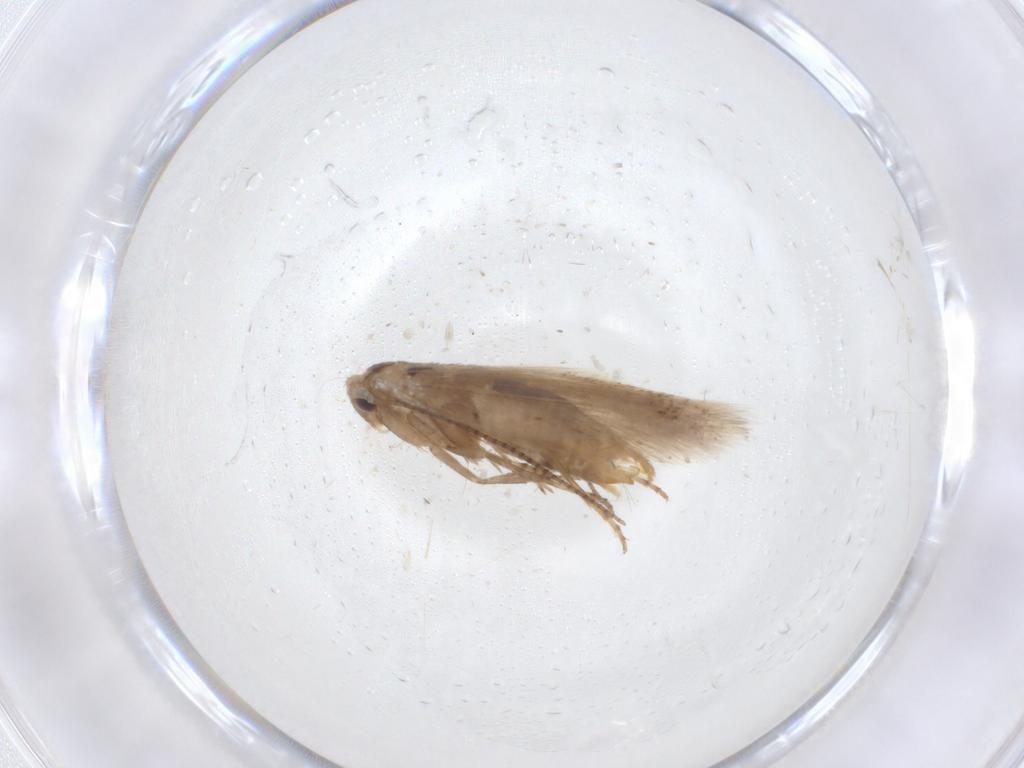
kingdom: Animalia
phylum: Arthropoda
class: Insecta
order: Lepidoptera
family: Bucculatricidae
